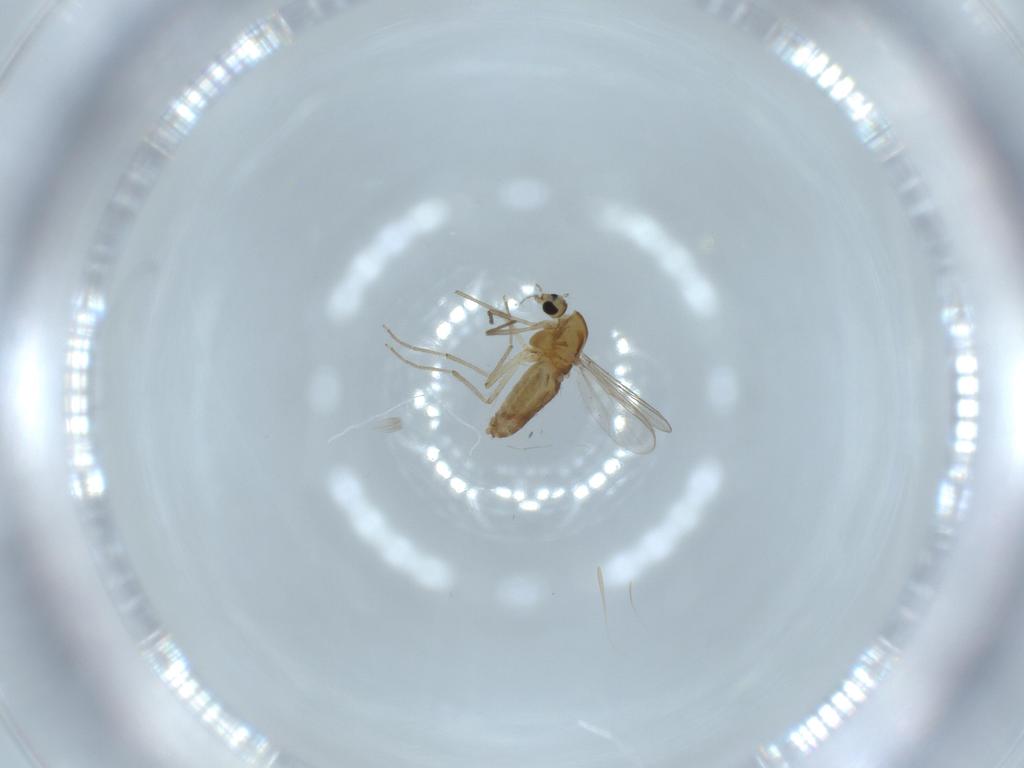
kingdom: Animalia
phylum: Arthropoda
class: Insecta
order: Diptera
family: Chironomidae
